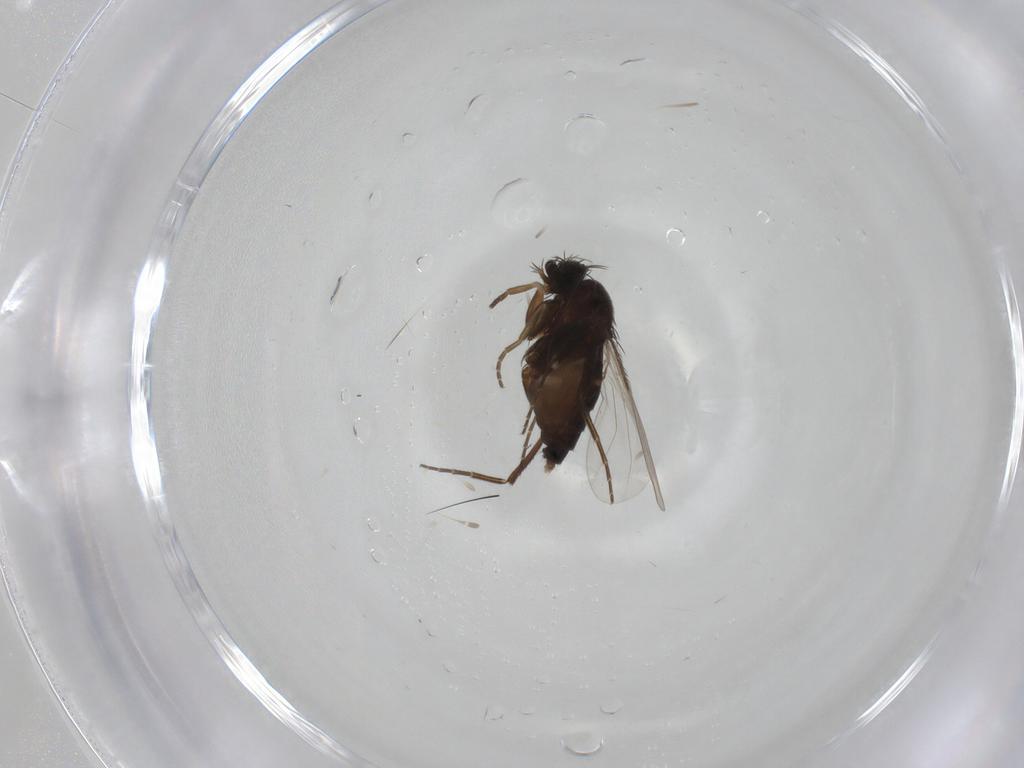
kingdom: Animalia
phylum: Arthropoda
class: Insecta
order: Diptera
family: Phoridae
